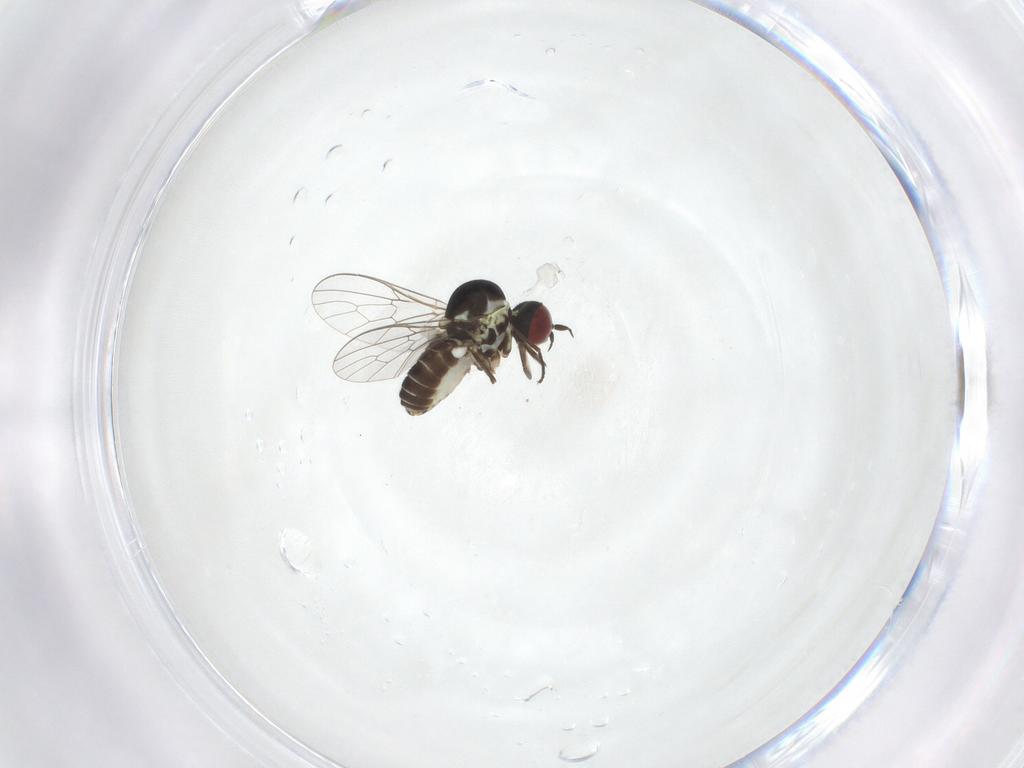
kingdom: Animalia
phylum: Arthropoda
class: Insecta
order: Diptera
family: Bombyliidae
